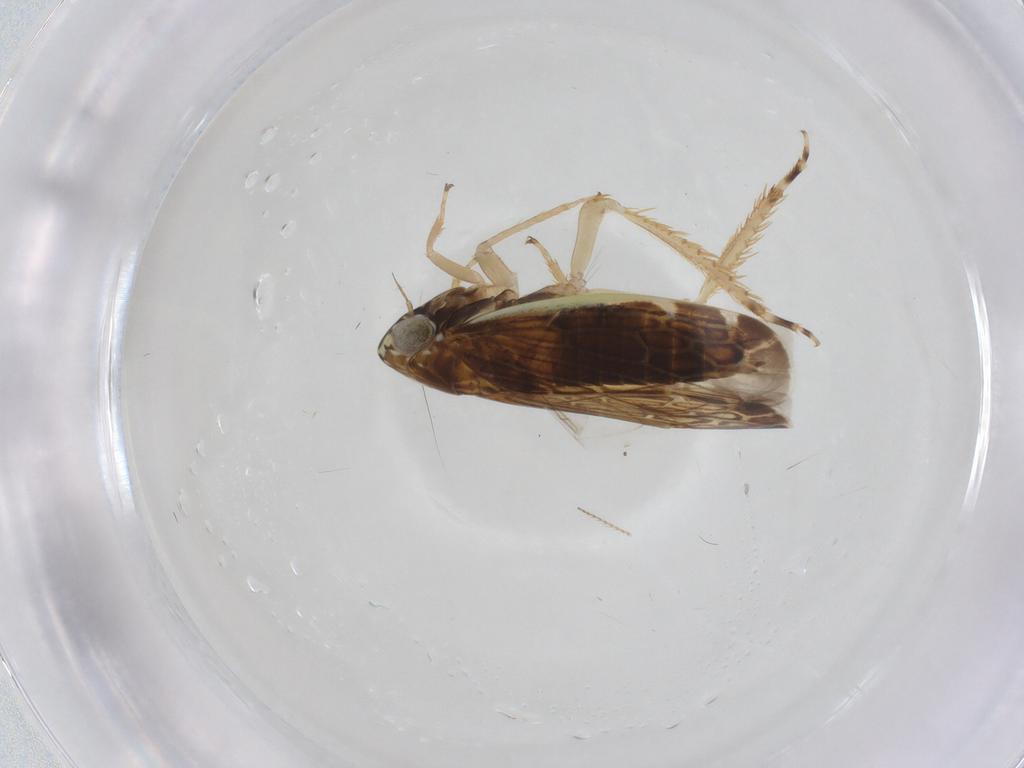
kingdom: Animalia
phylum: Arthropoda
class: Insecta
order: Hemiptera
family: Cicadellidae
